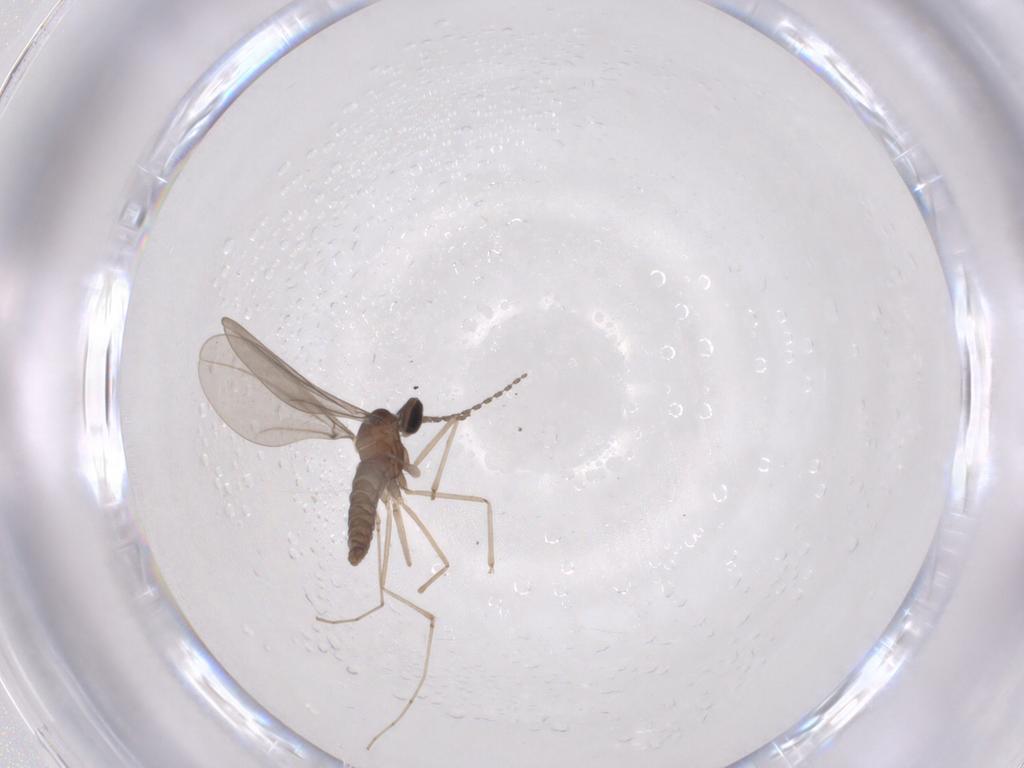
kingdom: Animalia
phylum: Arthropoda
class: Insecta
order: Diptera
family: Cecidomyiidae
